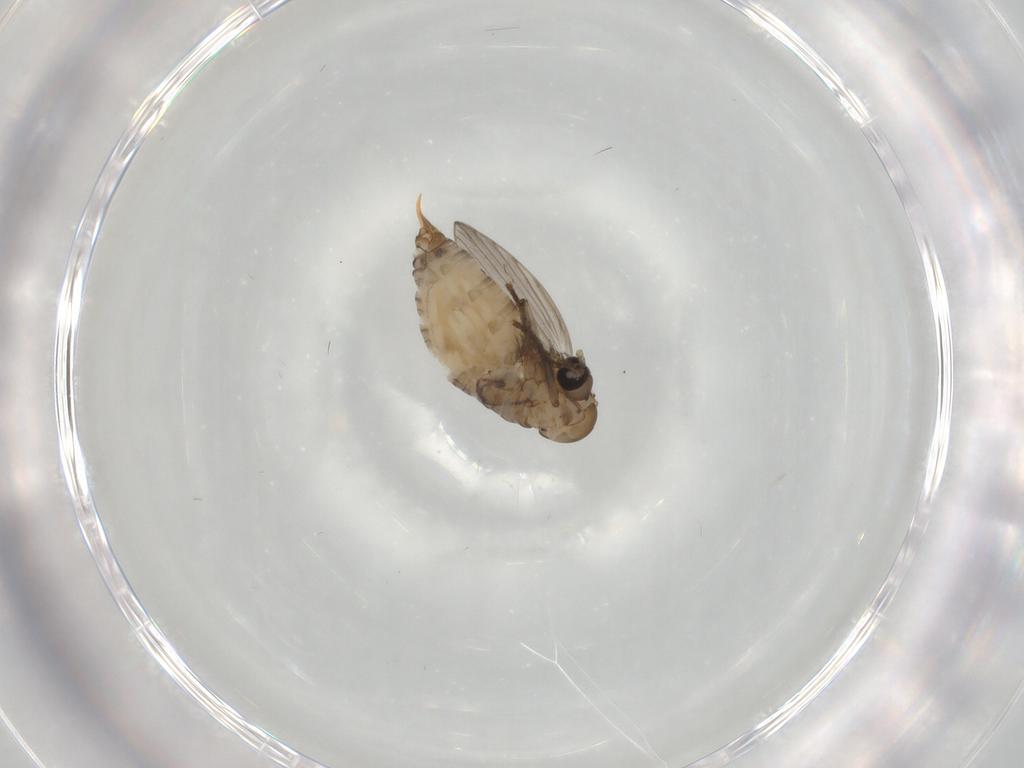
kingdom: Animalia
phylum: Arthropoda
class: Insecta
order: Diptera
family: Psychodidae
